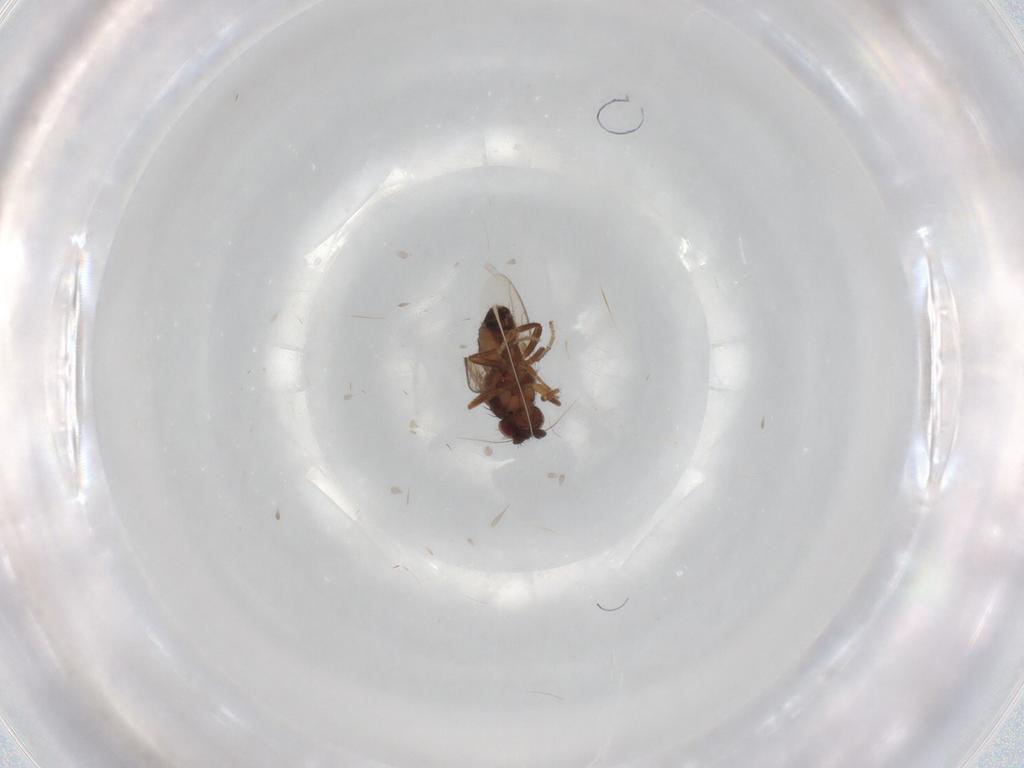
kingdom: Animalia
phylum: Arthropoda
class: Insecta
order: Diptera
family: Sphaeroceridae
